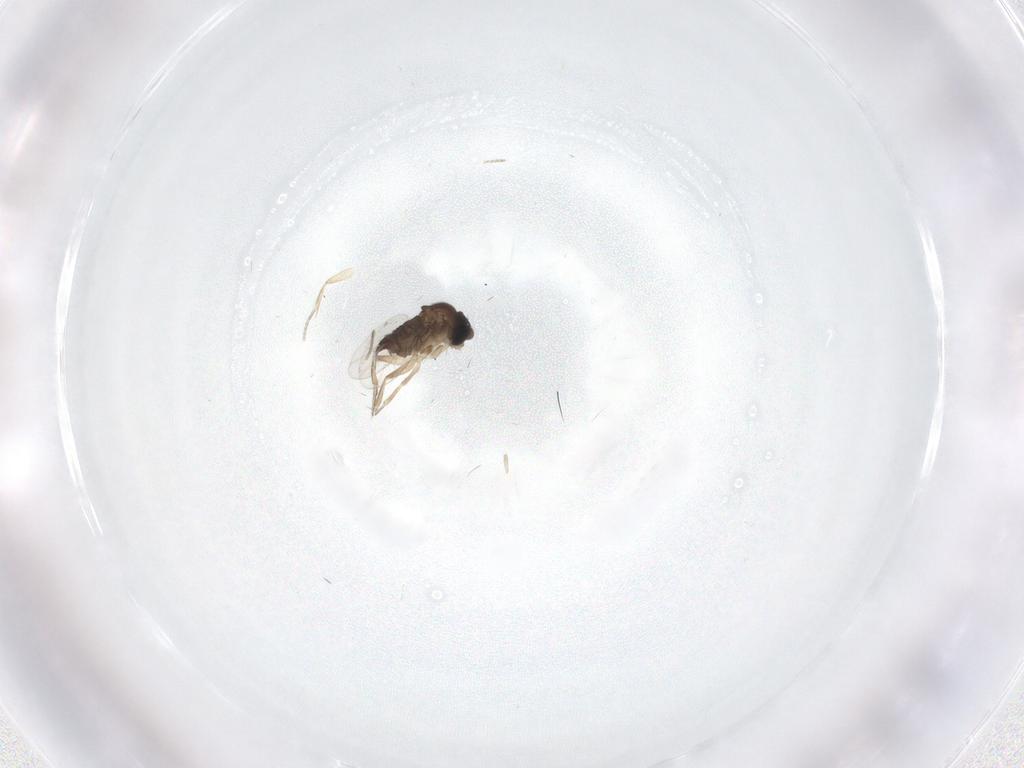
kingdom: Animalia
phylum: Arthropoda
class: Insecta
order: Diptera
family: Phoridae
